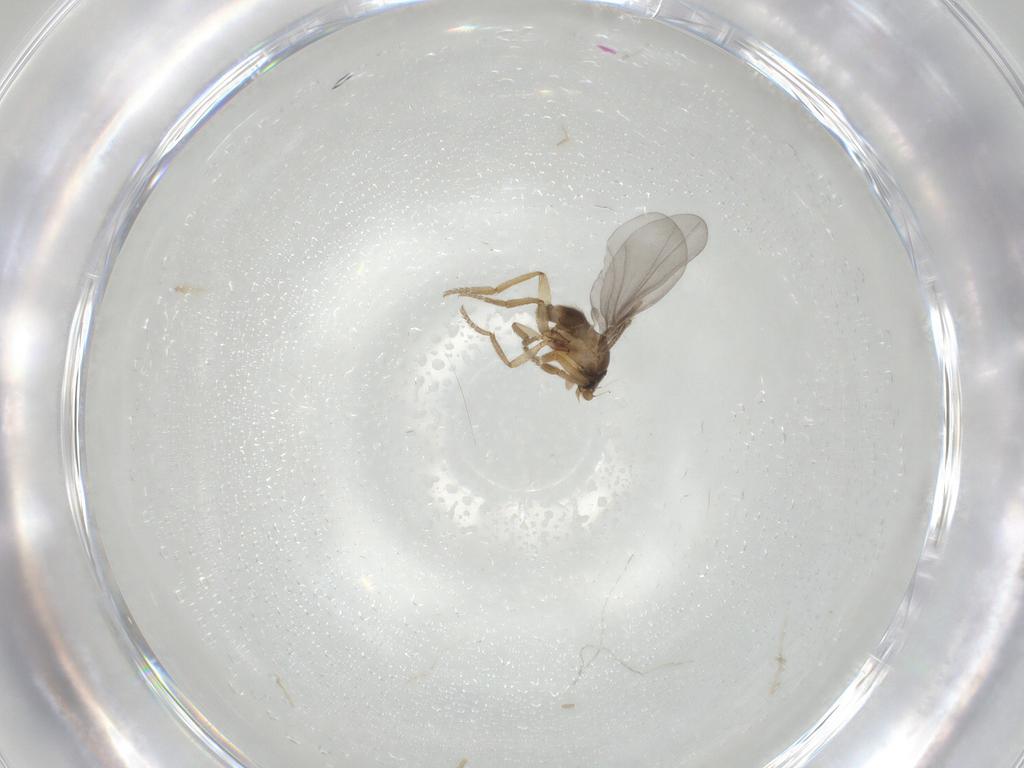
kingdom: Animalia
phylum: Arthropoda
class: Insecta
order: Diptera
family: Phoridae
